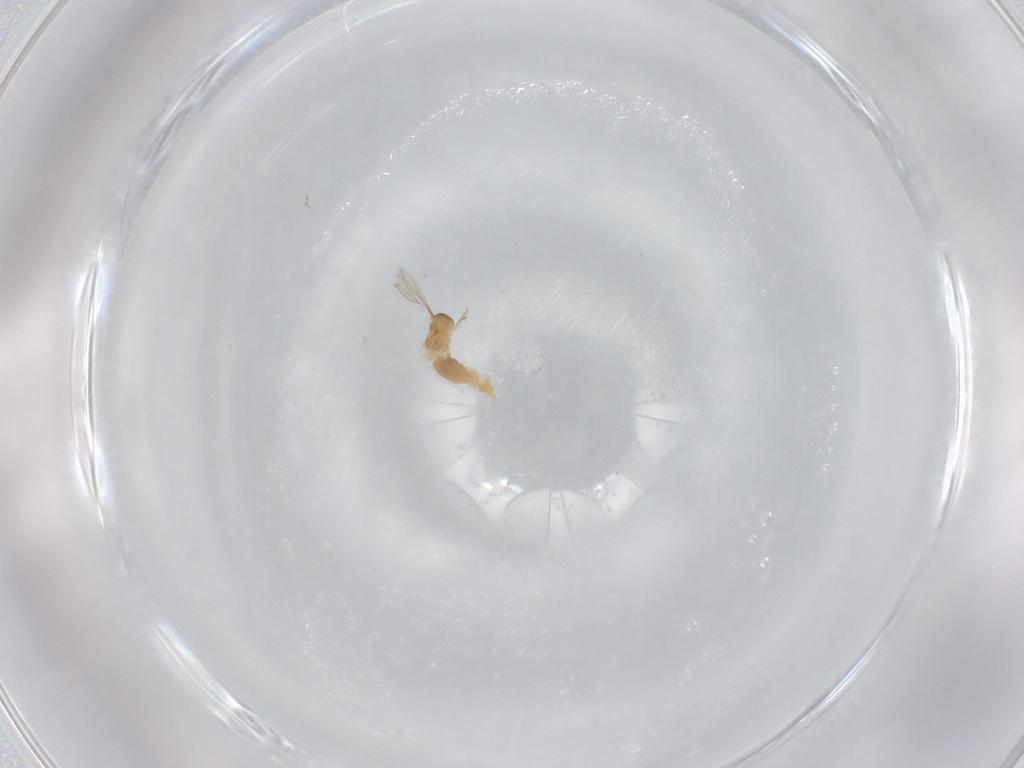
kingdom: Animalia
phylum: Arthropoda
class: Insecta
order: Diptera
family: Cecidomyiidae
